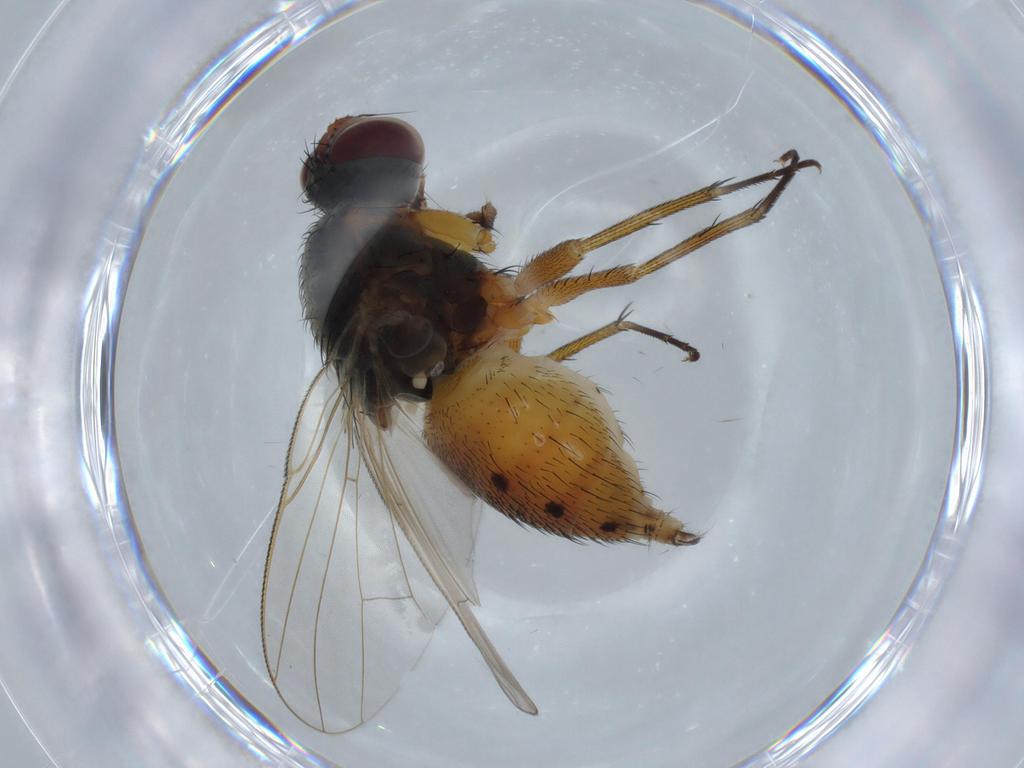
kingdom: Animalia
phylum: Arthropoda
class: Insecta
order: Diptera
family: Muscidae
